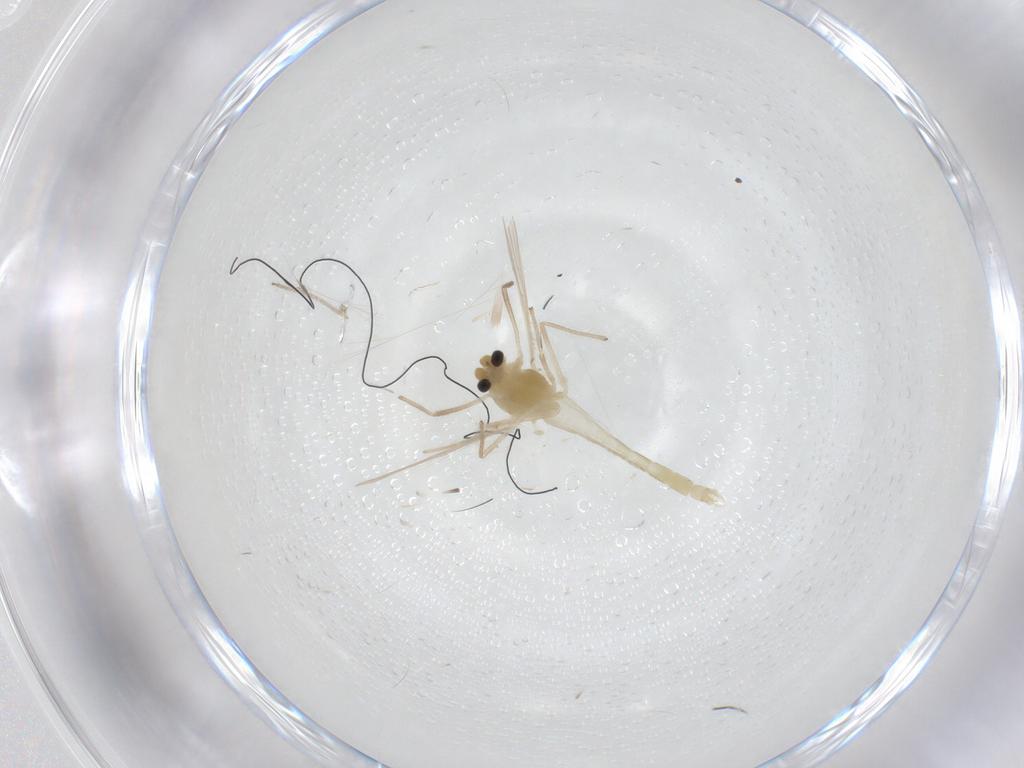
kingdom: Animalia
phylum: Arthropoda
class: Insecta
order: Diptera
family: Chironomidae
